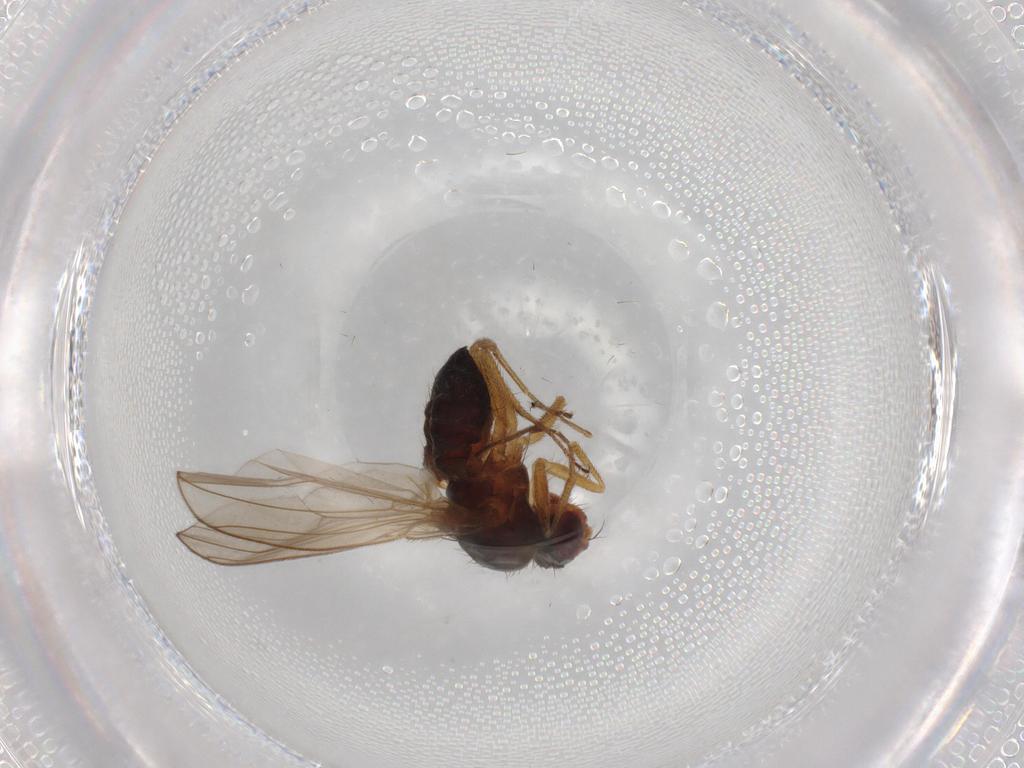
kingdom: Animalia
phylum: Arthropoda
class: Insecta
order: Diptera
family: Drosophilidae
